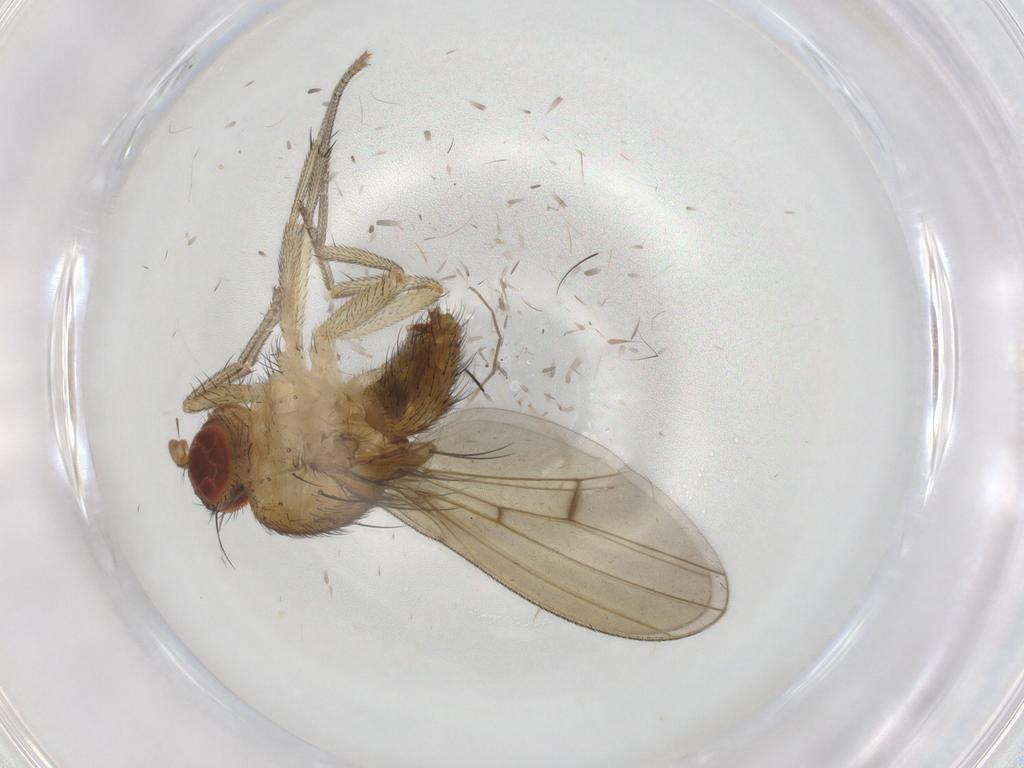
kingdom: Animalia
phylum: Arthropoda
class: Insecta
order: Diptera
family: Chironomidae
